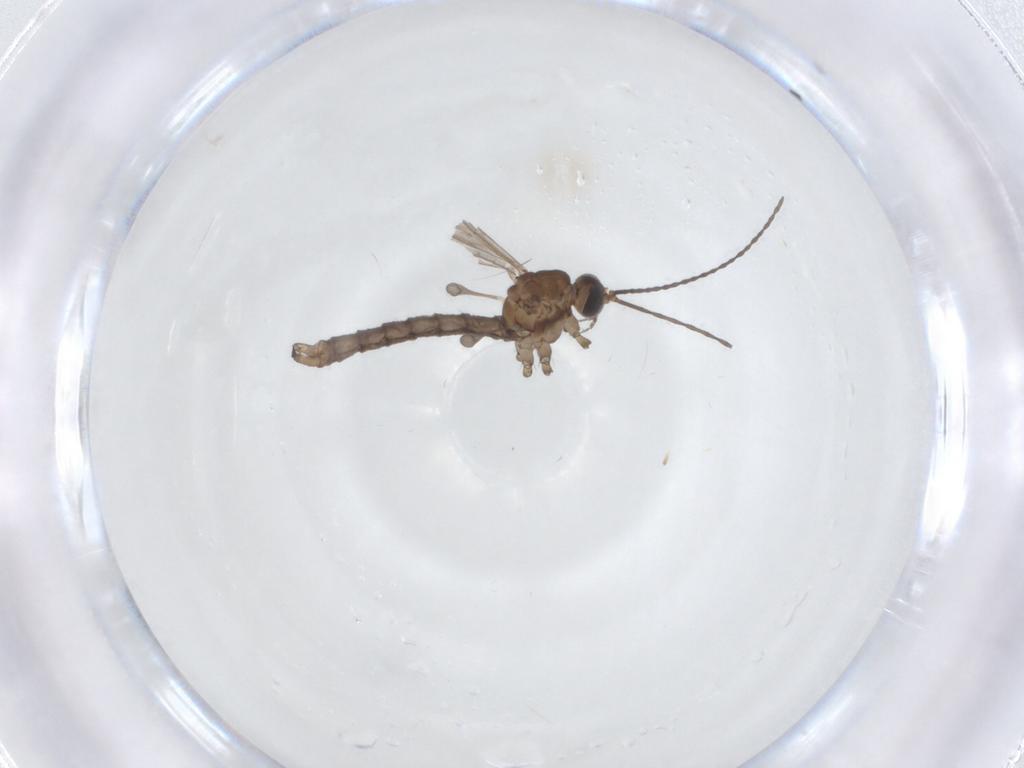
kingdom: Animalia
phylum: Arthropoda
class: Insecta
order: Diptera
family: Limoniidae
